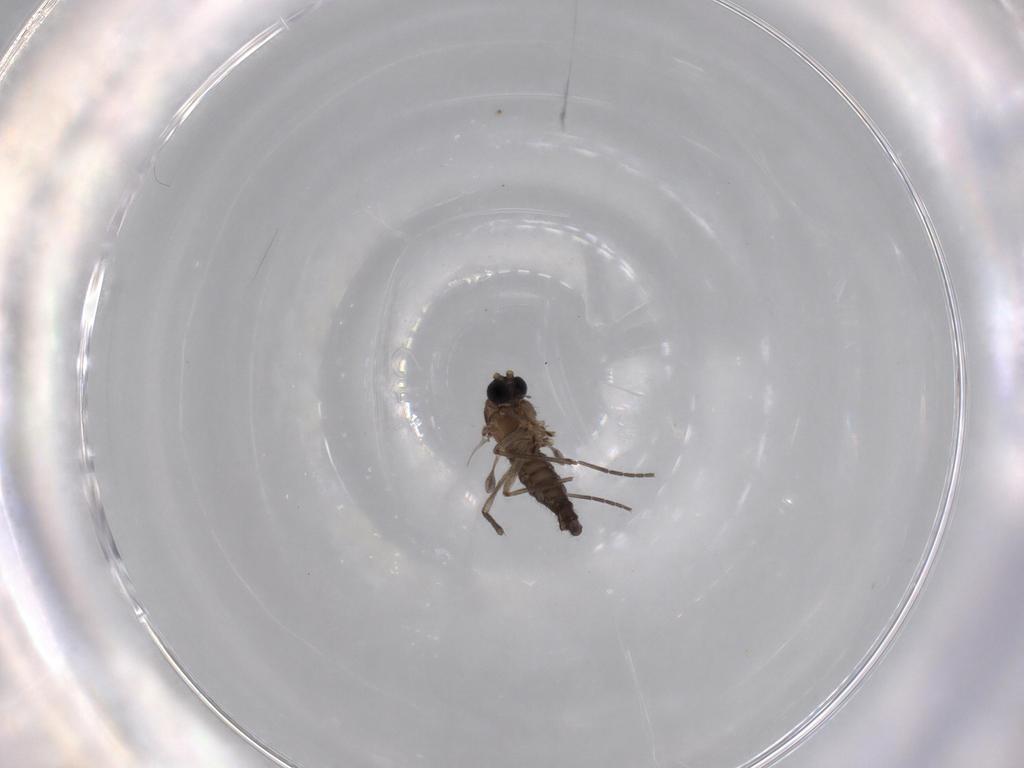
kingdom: Animalia
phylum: Arthropoda
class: Insecta
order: Diptera
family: Sciaridae
